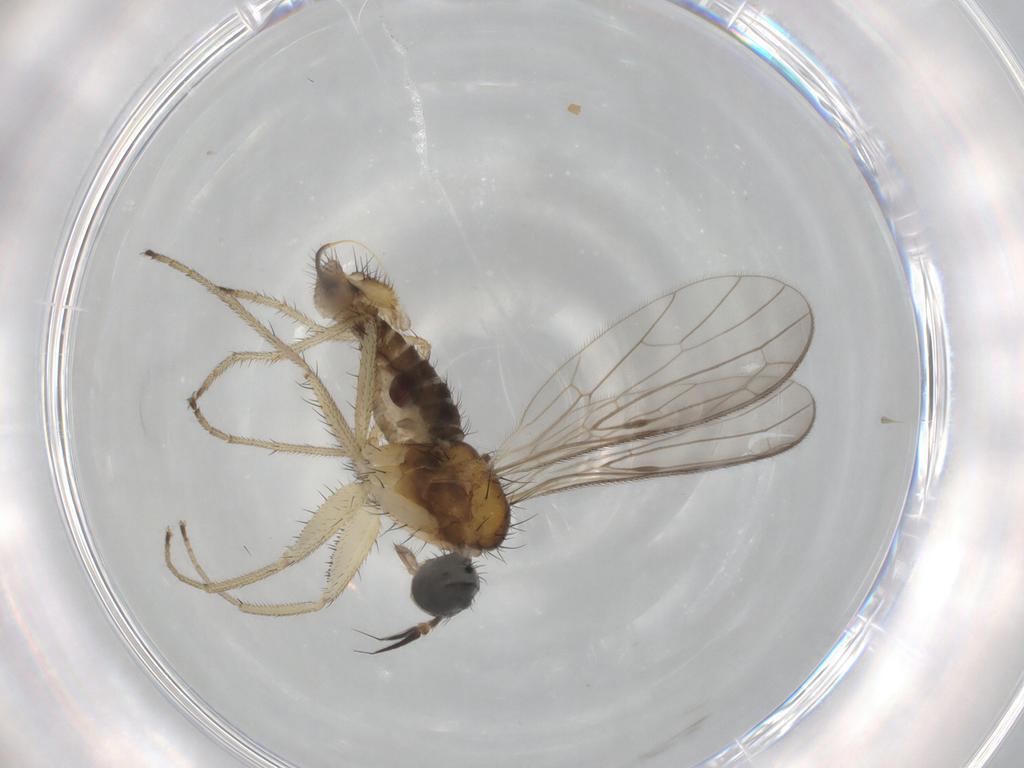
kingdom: Animalia
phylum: Arthropoda
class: Insecta
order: Diptera
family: Empididae
